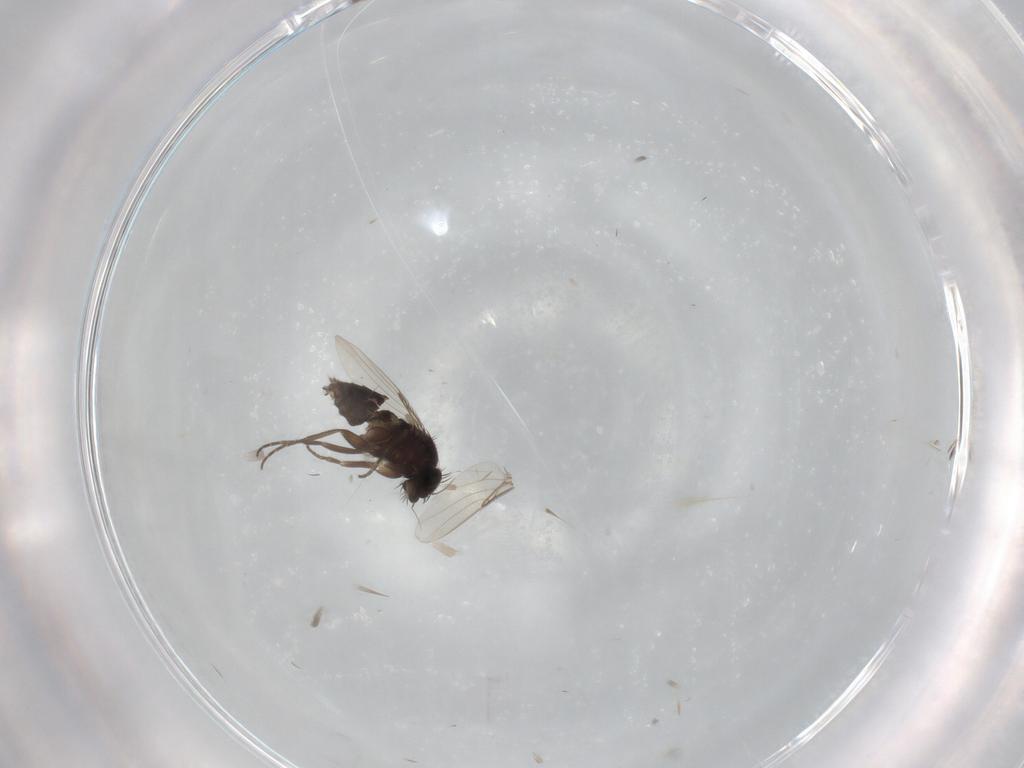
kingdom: Animalia
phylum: Arthropoda
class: Insecta
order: Diptera
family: Phoridae
